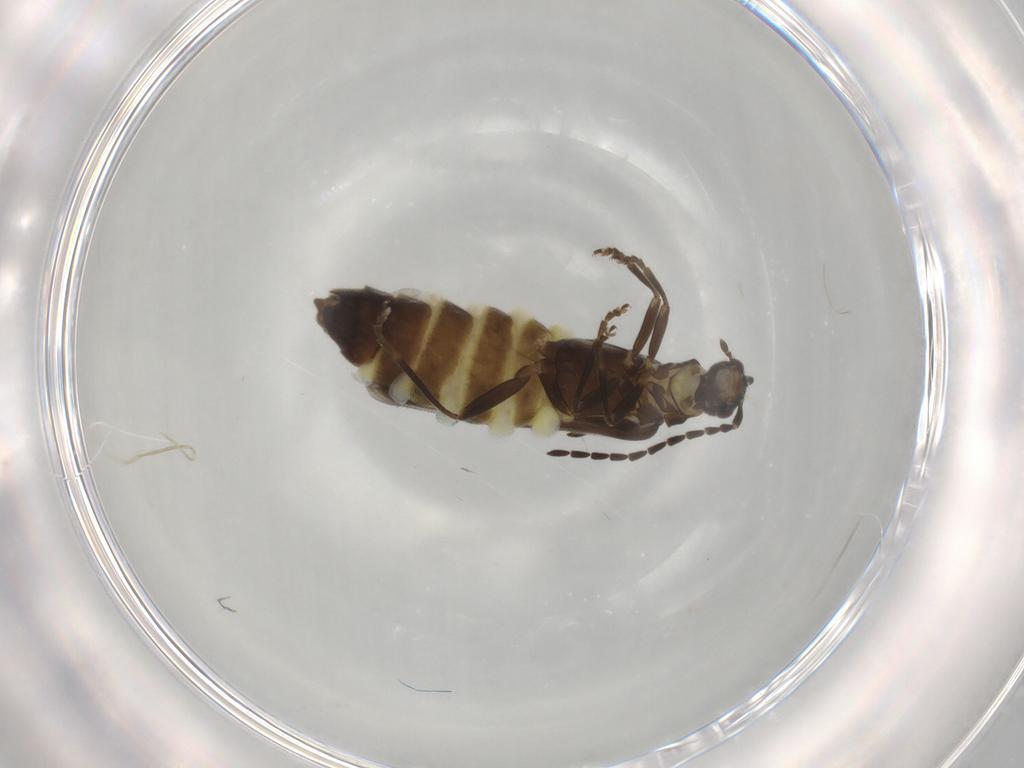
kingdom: Animalia
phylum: Arthropoda
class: Insecta
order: Coleoptera
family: Cantharidae
